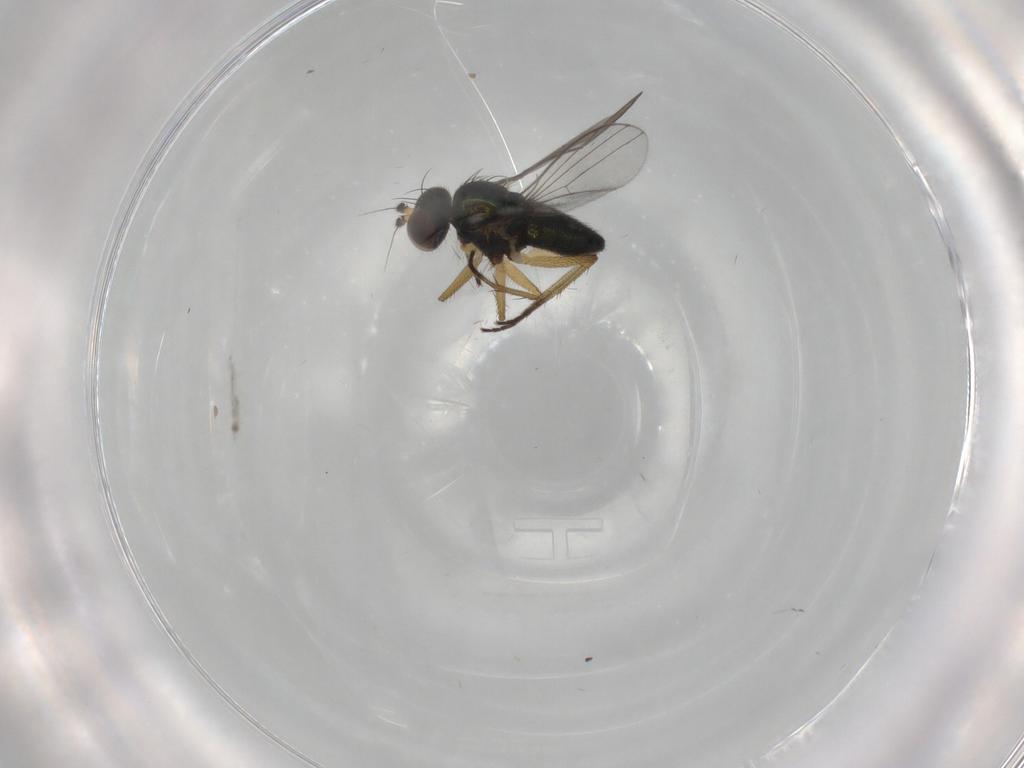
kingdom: Animalia
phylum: Arthropoda
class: Insecta
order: Diptera
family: Dolichopodidae
